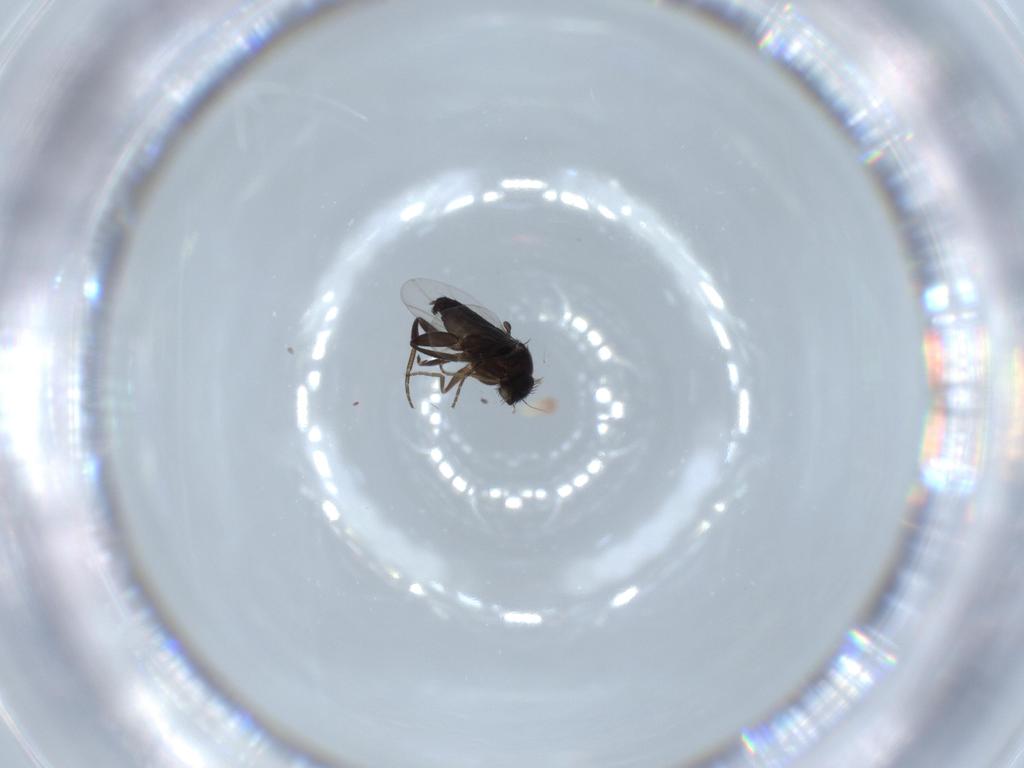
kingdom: Animalia
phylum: Arthropoda
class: Insecta
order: Diptera
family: Phoridae
